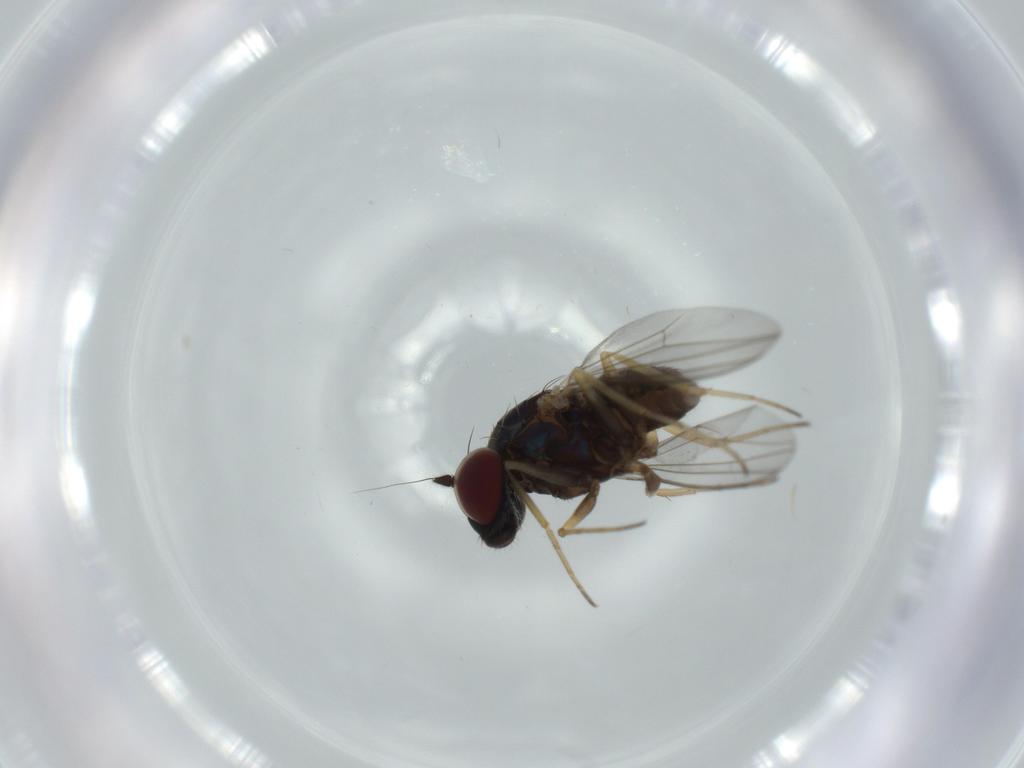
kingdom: Animalia
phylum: Arthropoda
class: Insecta
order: Diptera
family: Dolichopodidae
